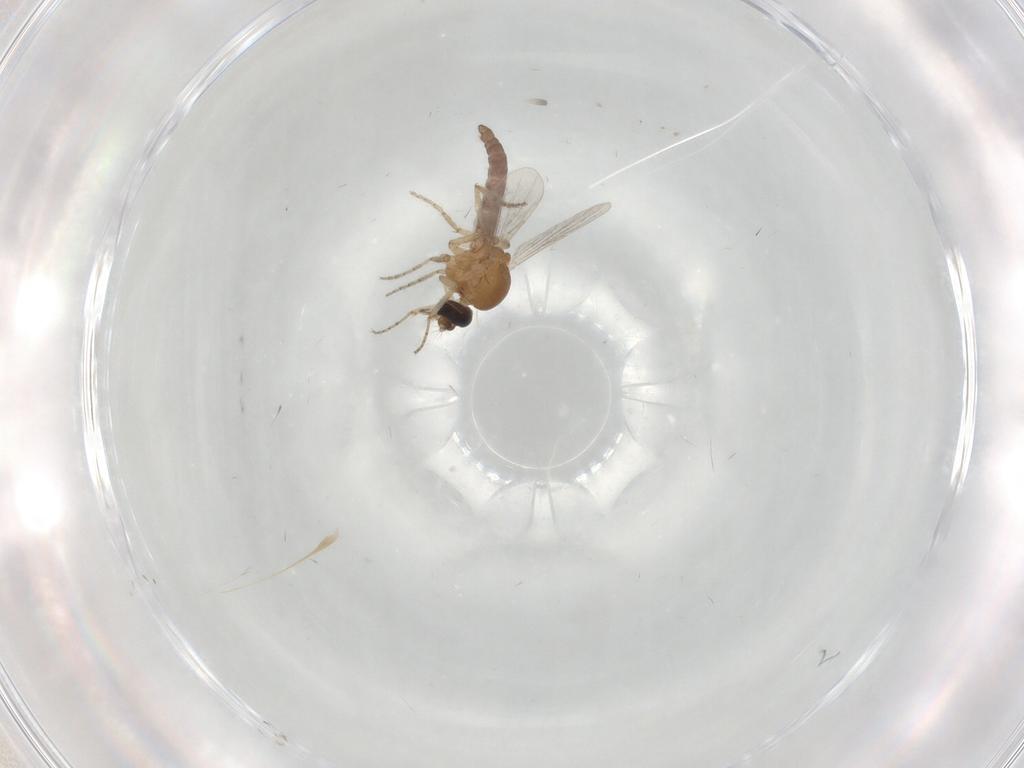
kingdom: Animalia
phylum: Arthropoda
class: Insecta
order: Diptera
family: Ceratopogonidae
